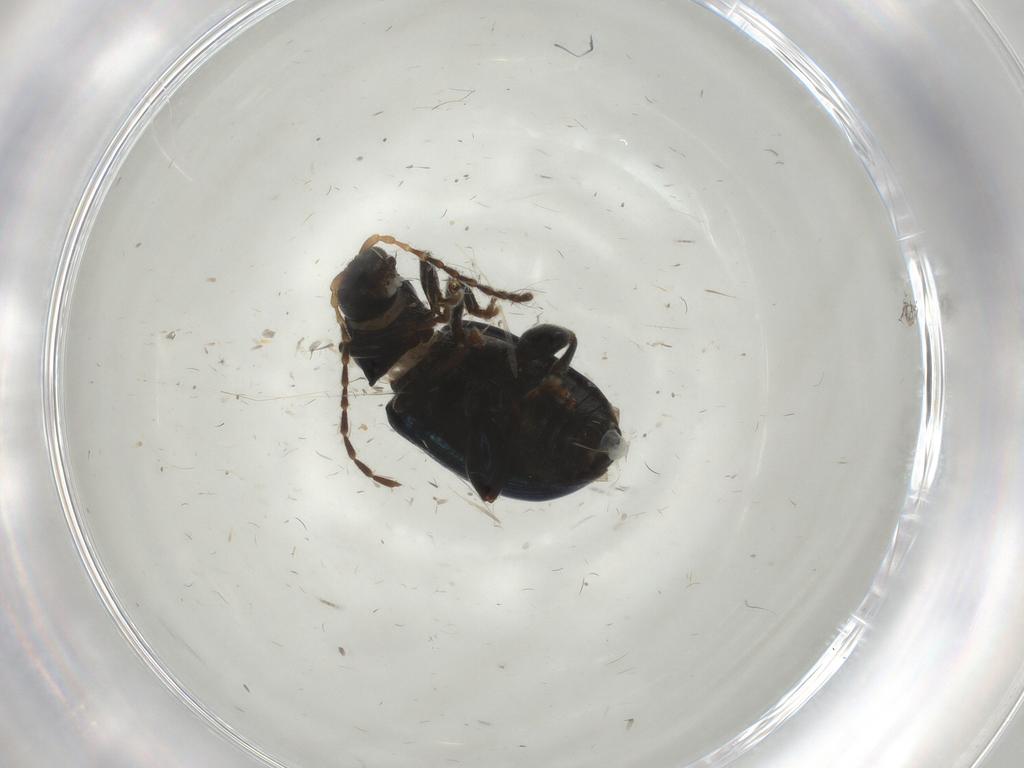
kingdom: Animalia
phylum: Arthropoda
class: Insecta
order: Coleoptera
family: Chrysomelidae
